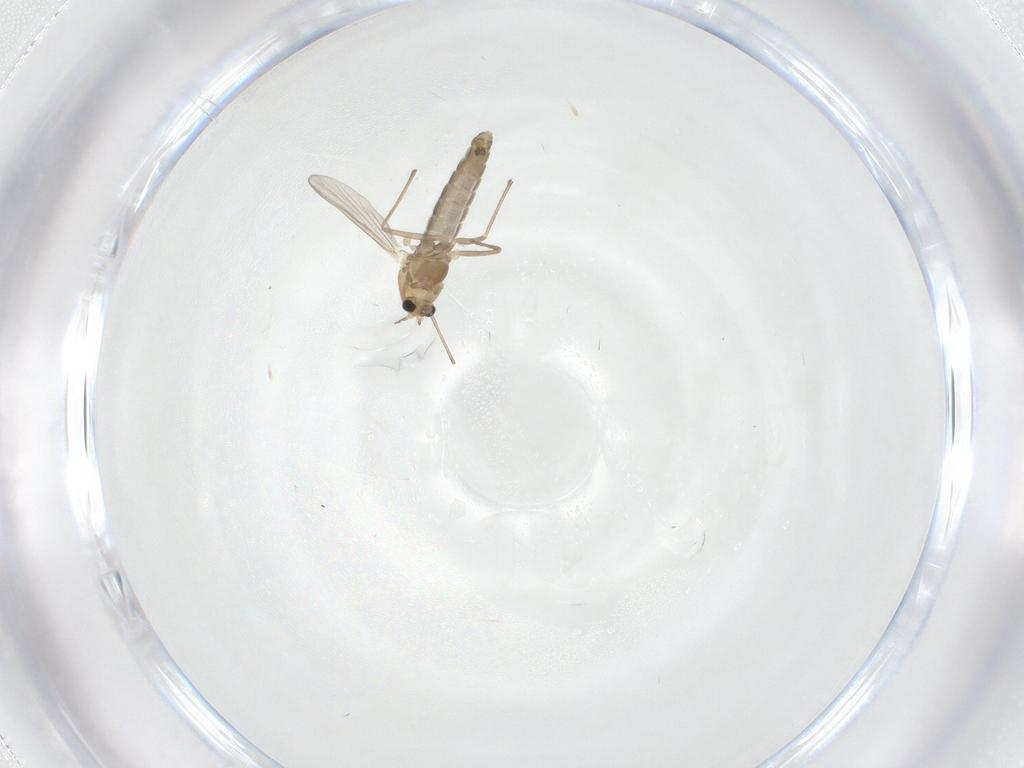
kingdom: Animalia
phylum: Arthropoda
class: Insecta
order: Diptera
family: Chironomidae
